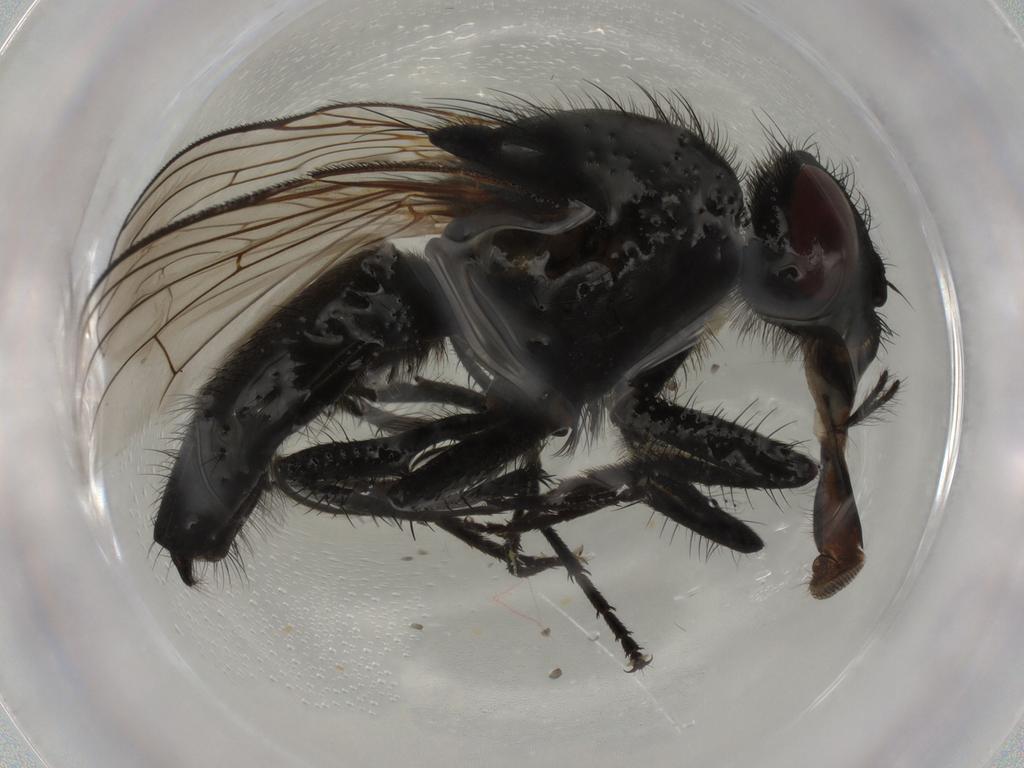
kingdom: Animalia
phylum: Arthropoda
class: Insecta
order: Diptera
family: Muscidae
